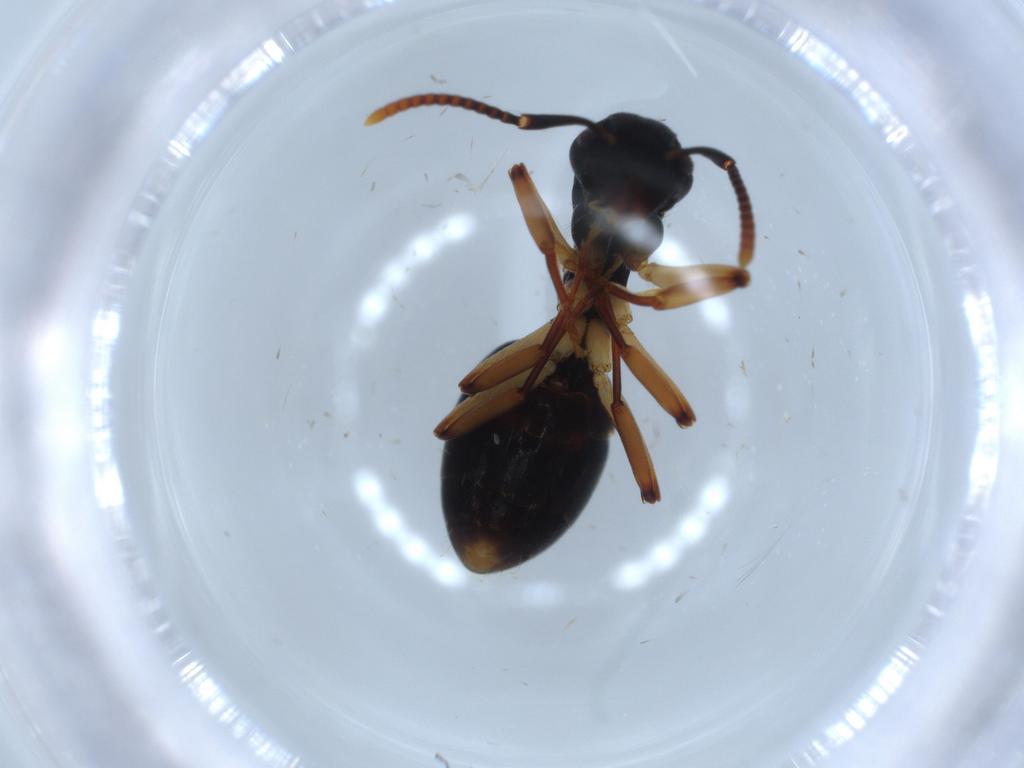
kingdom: Animalia
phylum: Arthropoda
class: Insecta
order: Hymenoptera
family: Formicidae
